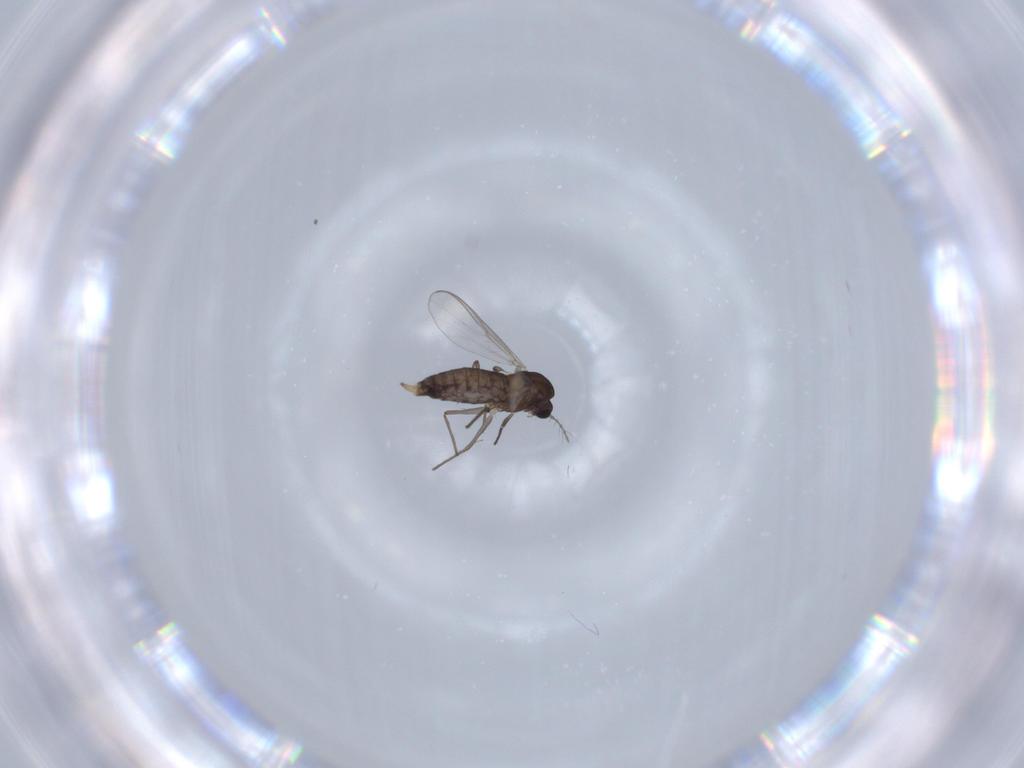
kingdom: Animalia
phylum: Arthropoda
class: Insecta
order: Diptera
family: Chironomidae
